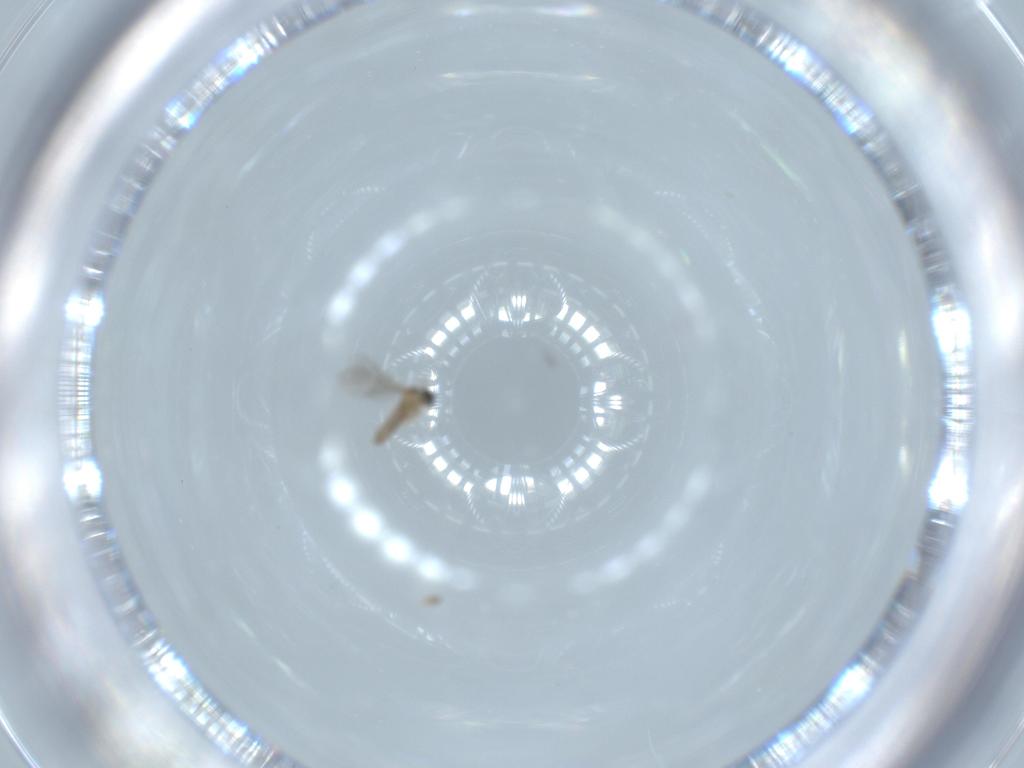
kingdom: Animalia
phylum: Arthropoda
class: Insecta
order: Diptera
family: Cecidomyiidae
